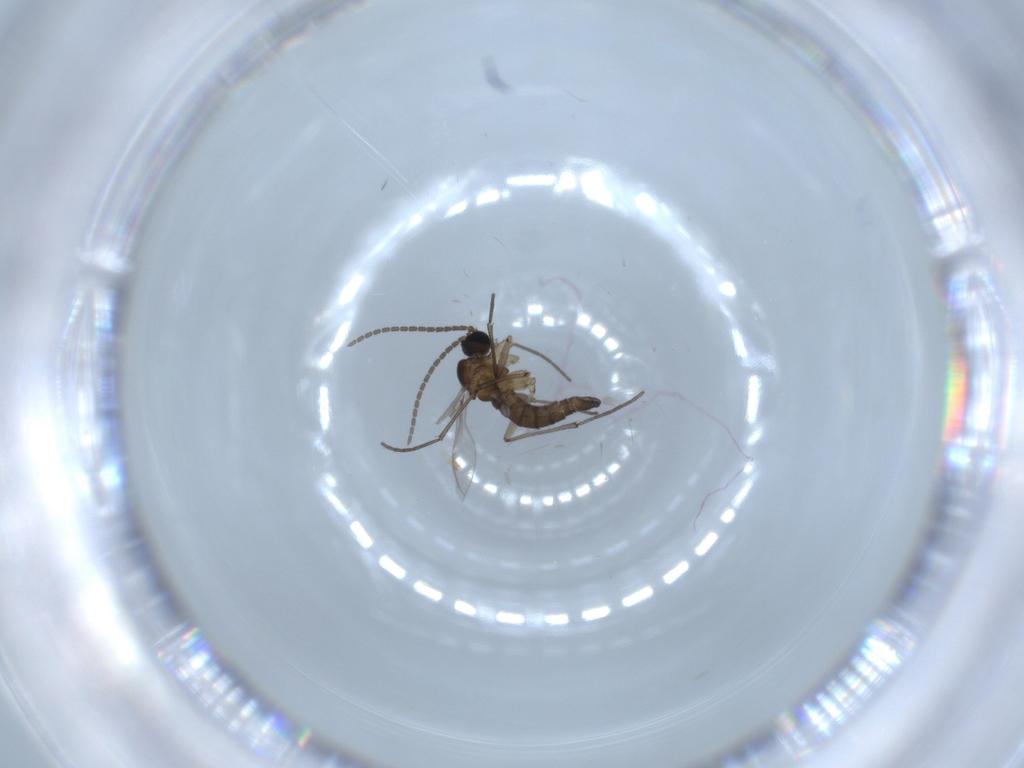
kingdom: Animalia
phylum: Arthropoda
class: Insecta
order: Diptera
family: Sciaridae
